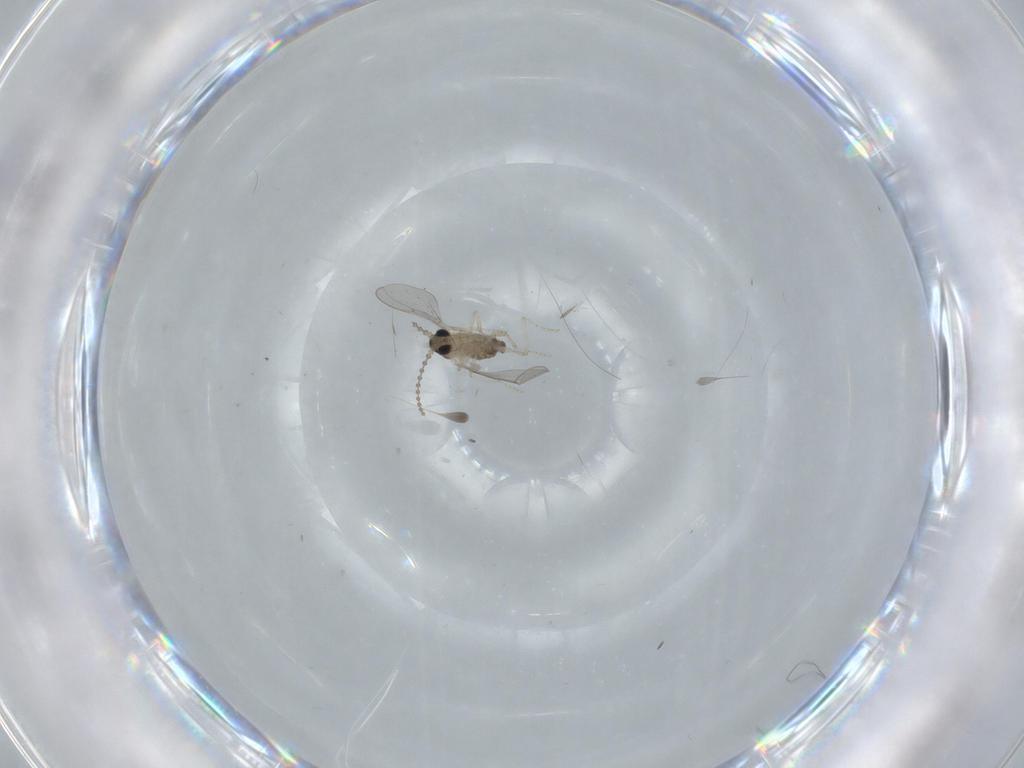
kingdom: Animalia
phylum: Arthropoda
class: Insecta
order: Diptera
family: Cecidomyiidae
